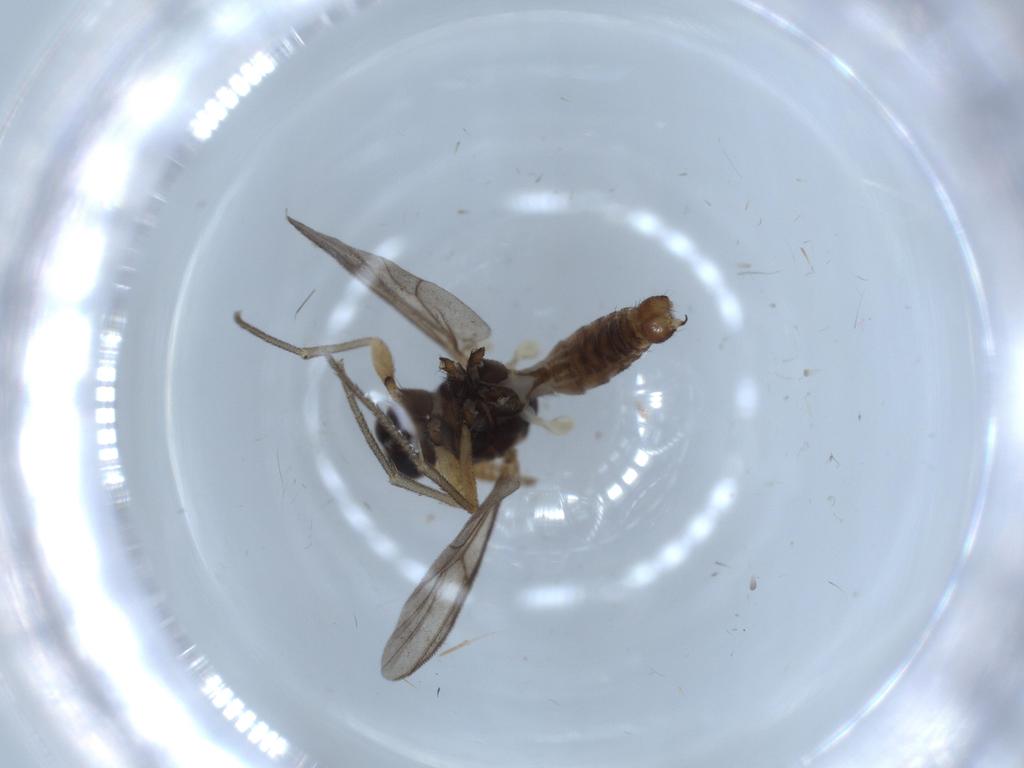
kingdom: Animalia
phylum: Arthropoda
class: Insecta
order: Diptera
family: Mycetophilidae
